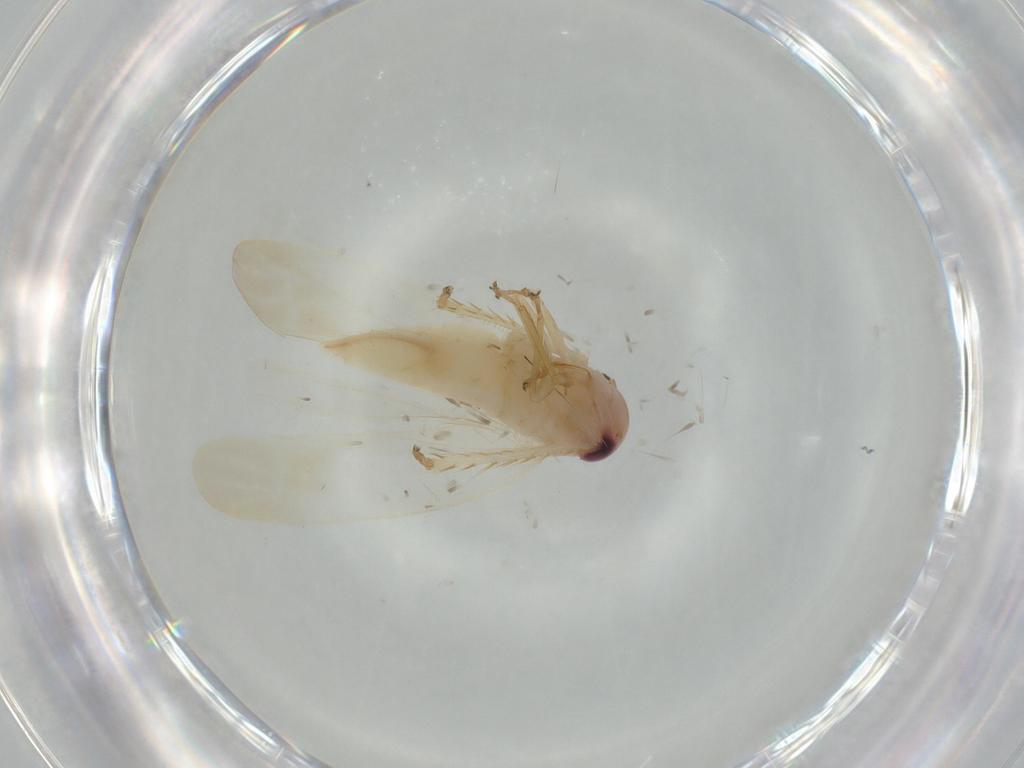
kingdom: Animalia
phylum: Arthropoda
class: Insecta
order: Hemiptera
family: Cicadellidae
